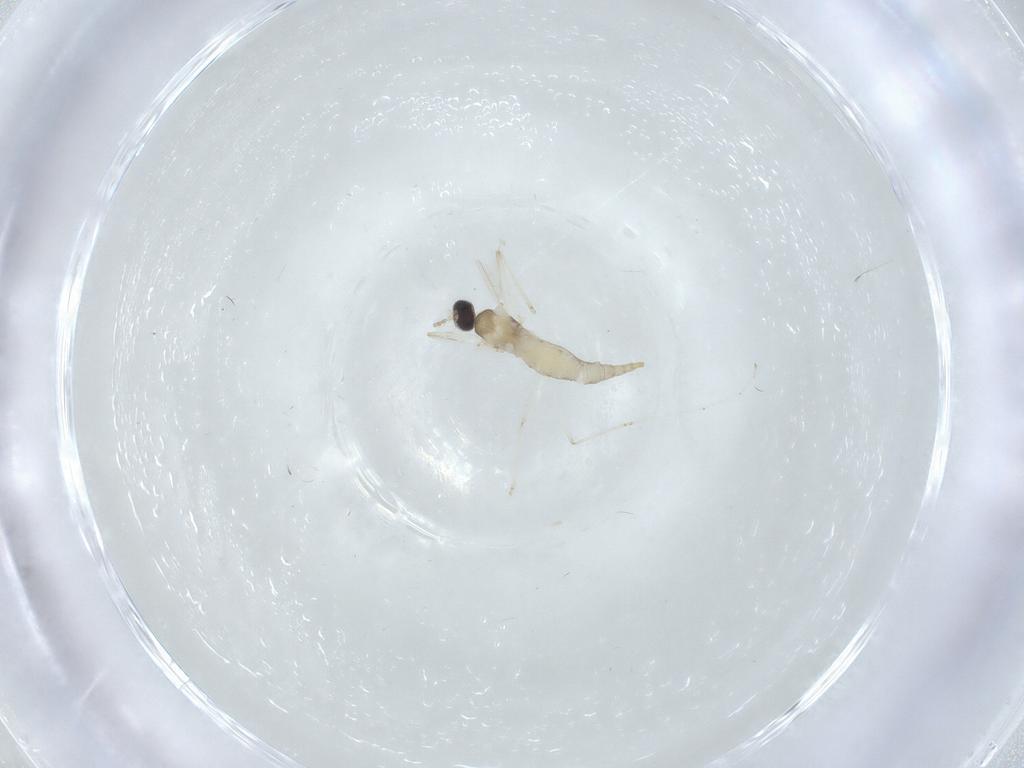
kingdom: Animalia
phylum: Arthropoda
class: Insecta
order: Diptera
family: Cecidomyiidae
